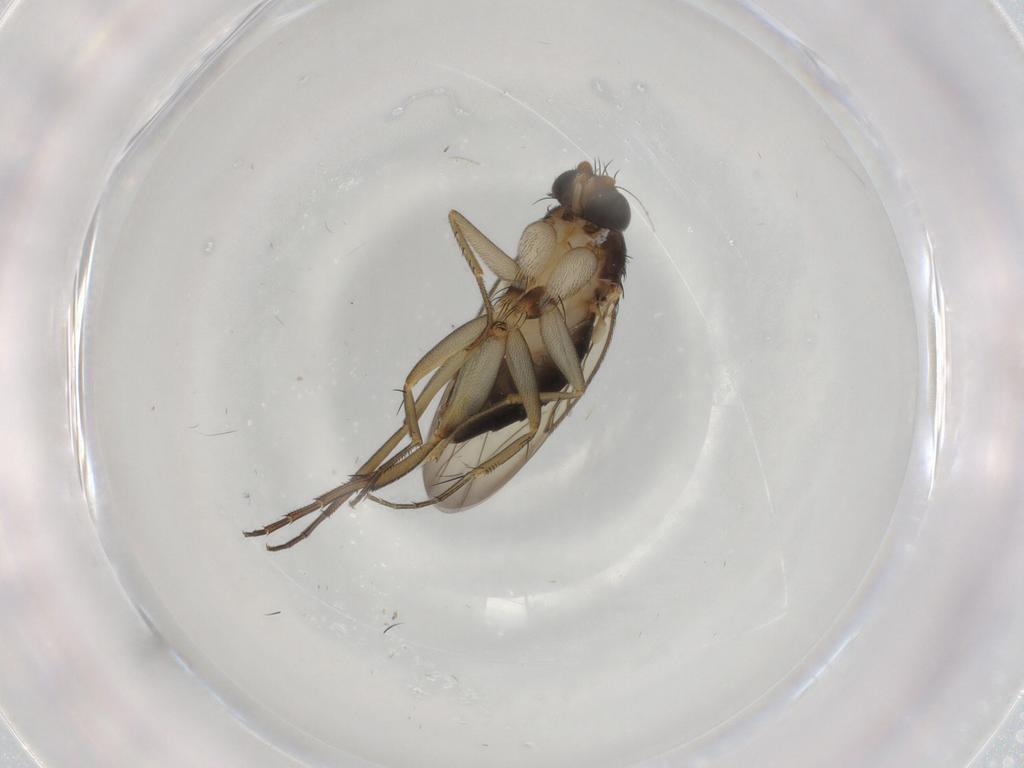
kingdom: Animalia
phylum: Arthropoda
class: Insecta
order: Diptera
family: Phoridae
